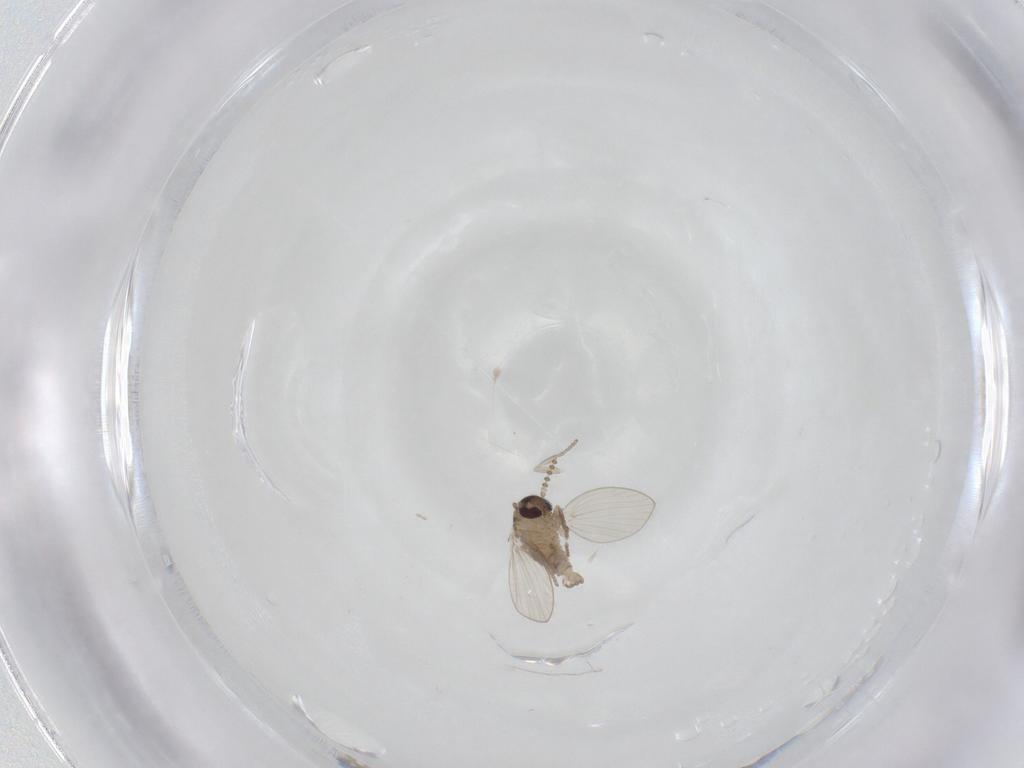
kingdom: Animalia
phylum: Arthropoda
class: Insecta
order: Diptera
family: Psychodidae
